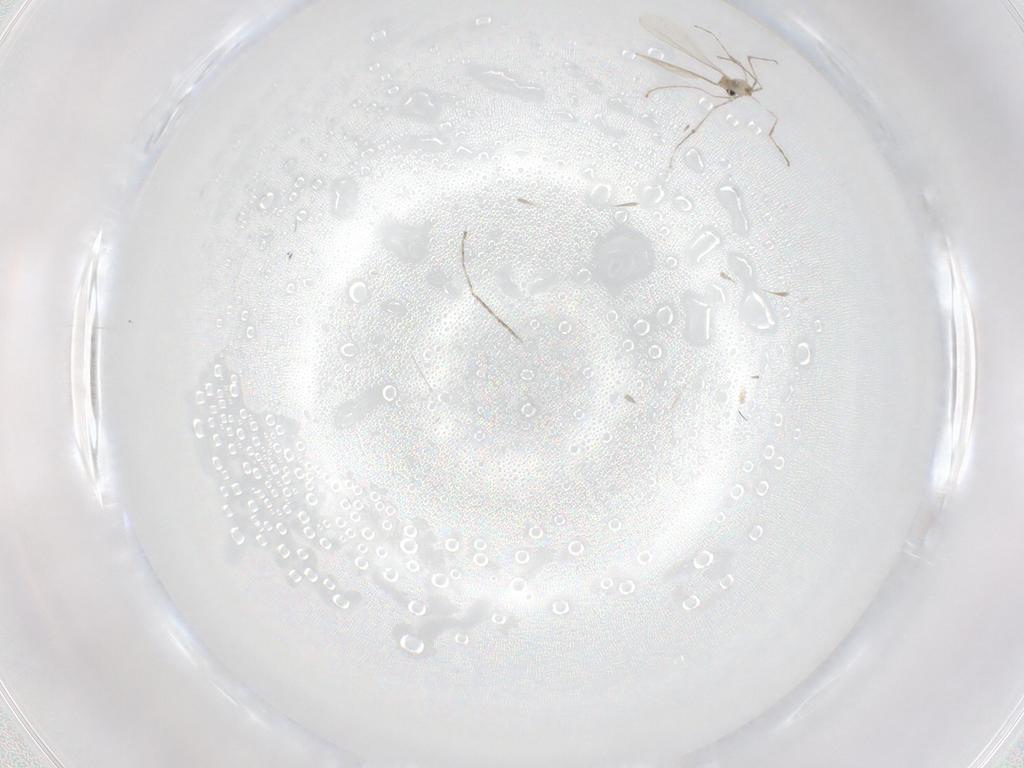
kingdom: Animalia
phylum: Arthropoda
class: Insecta
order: Diptera
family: Cecidomyiidae
